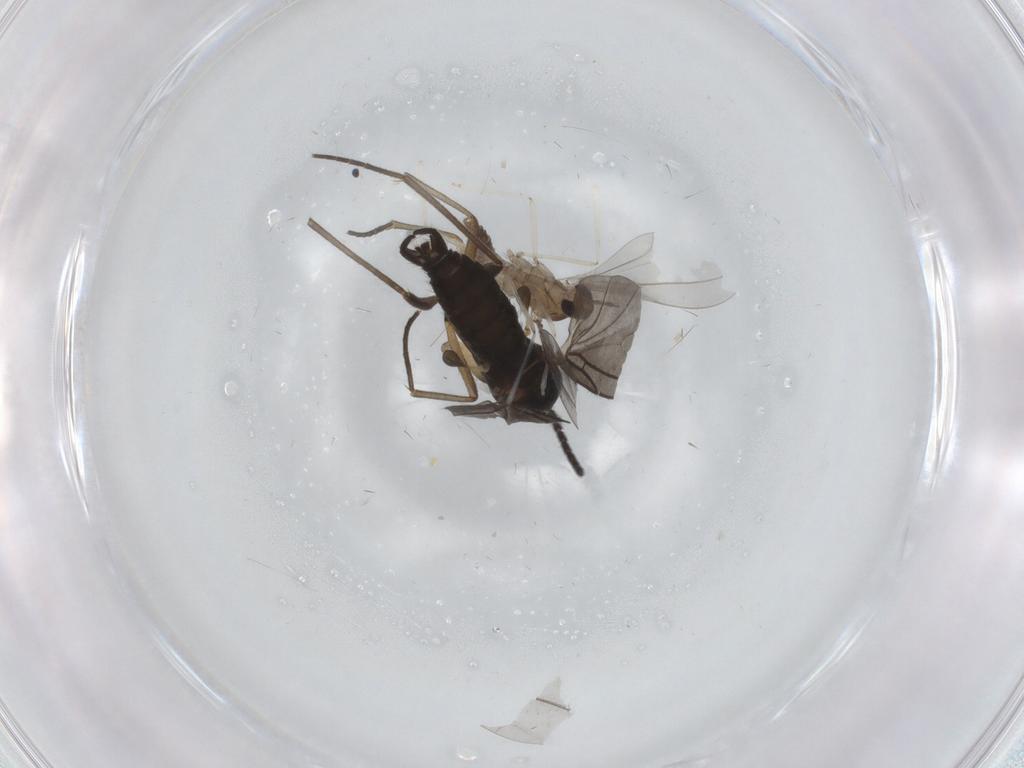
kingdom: Animalia
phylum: Arthropoda
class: Insecta
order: Diptera
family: Sciaridae
